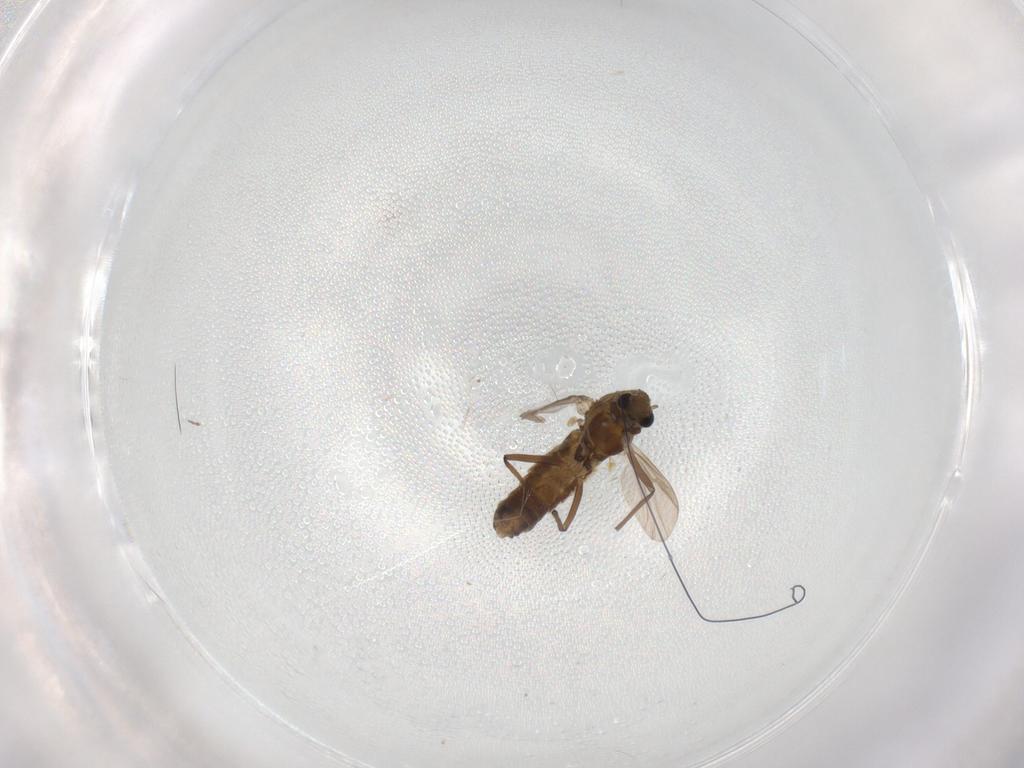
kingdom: Animalia
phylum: Arthropoda
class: Insecta
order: Diptera
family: Chironomidae
